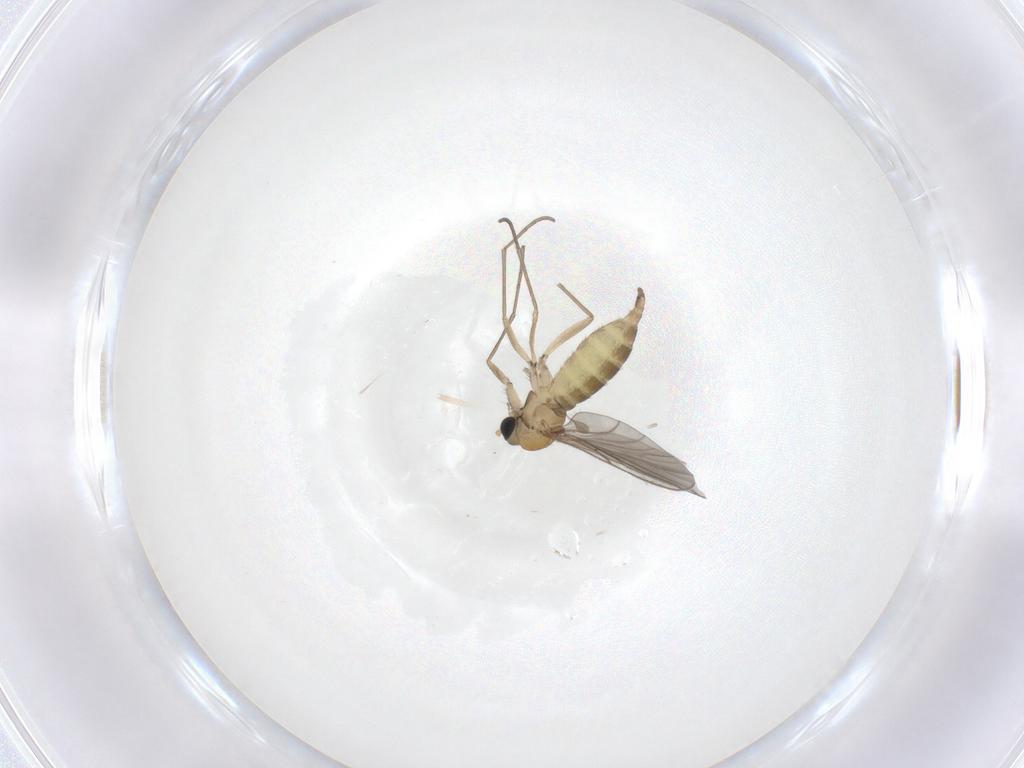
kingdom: Animalia
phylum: Arthropoda
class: Insecta
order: Diptera
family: Sciaridae
